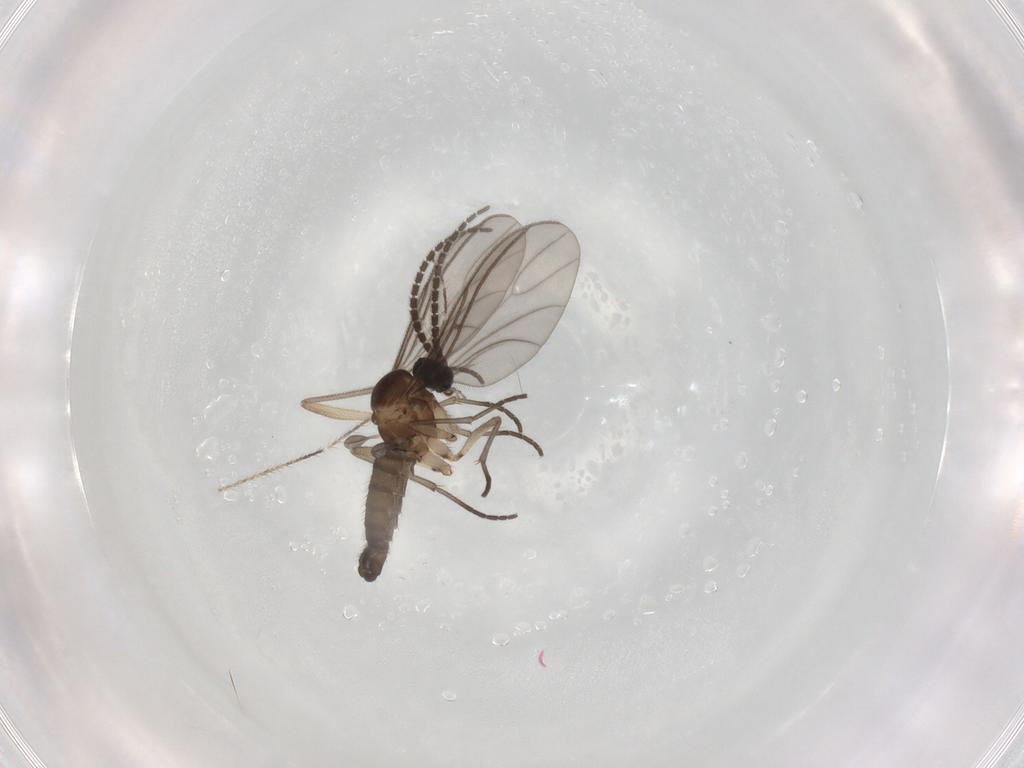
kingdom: Animalia
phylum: Arthropoda
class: Insecta
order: Diptera
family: Sciaridae
